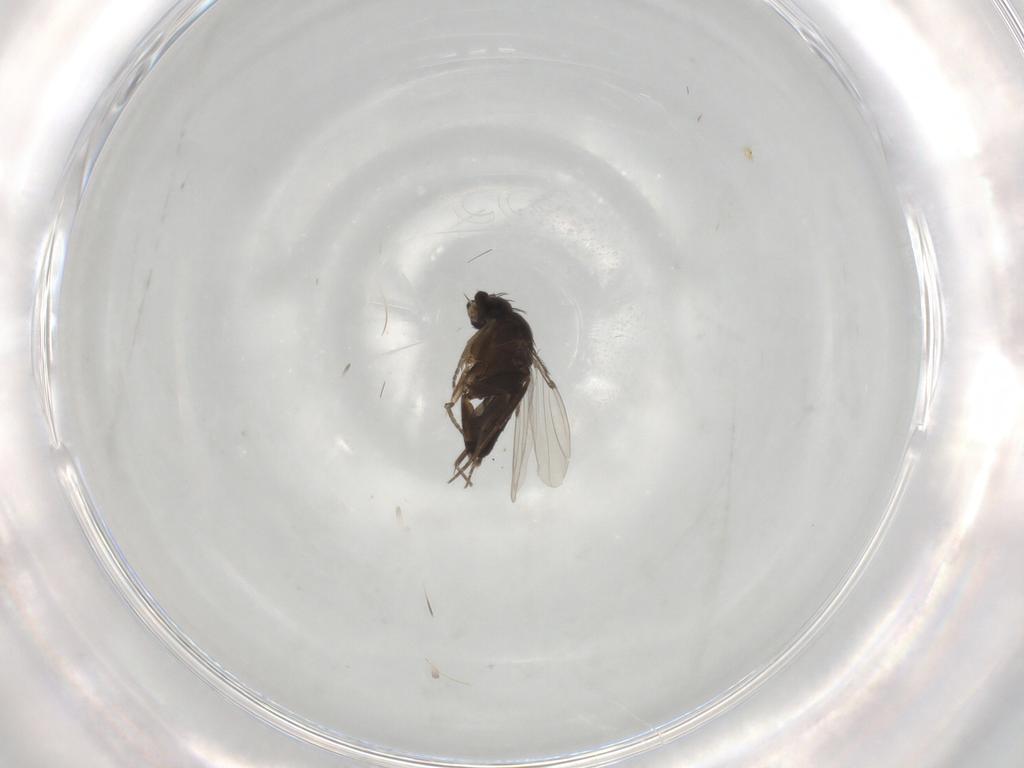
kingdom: Animalia
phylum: Arthropoda
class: Insecta
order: Diptera
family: Phoridae
